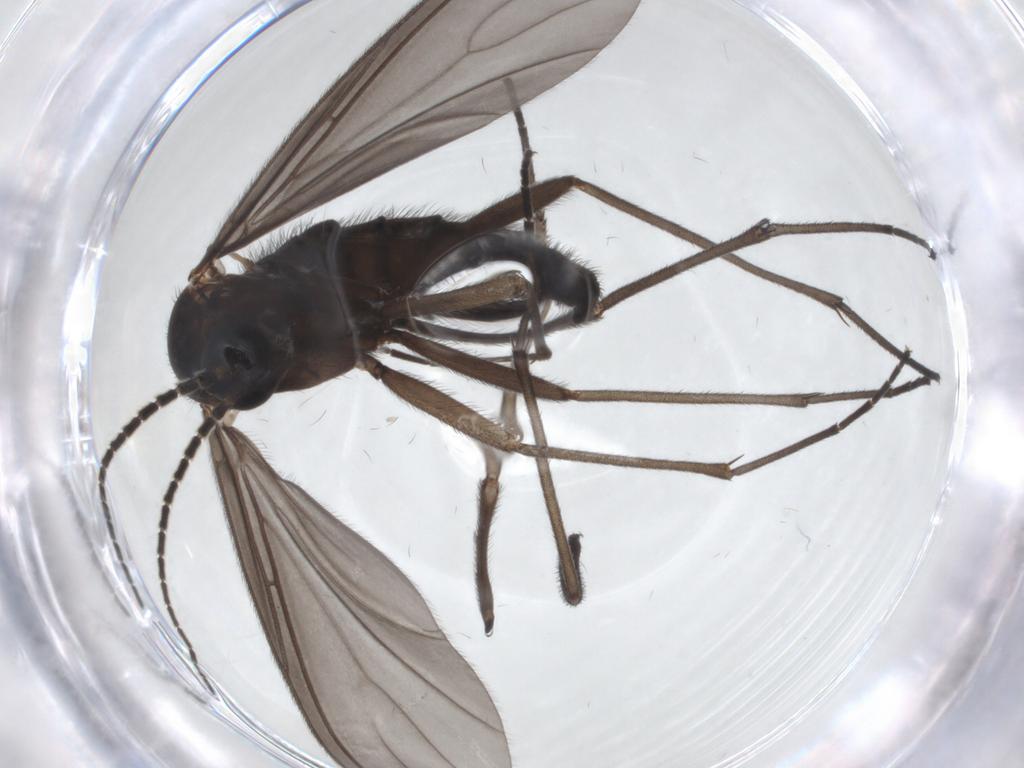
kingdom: Animalia
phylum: Arthropoda
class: Insecta
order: Diptera
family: Sciaridae
